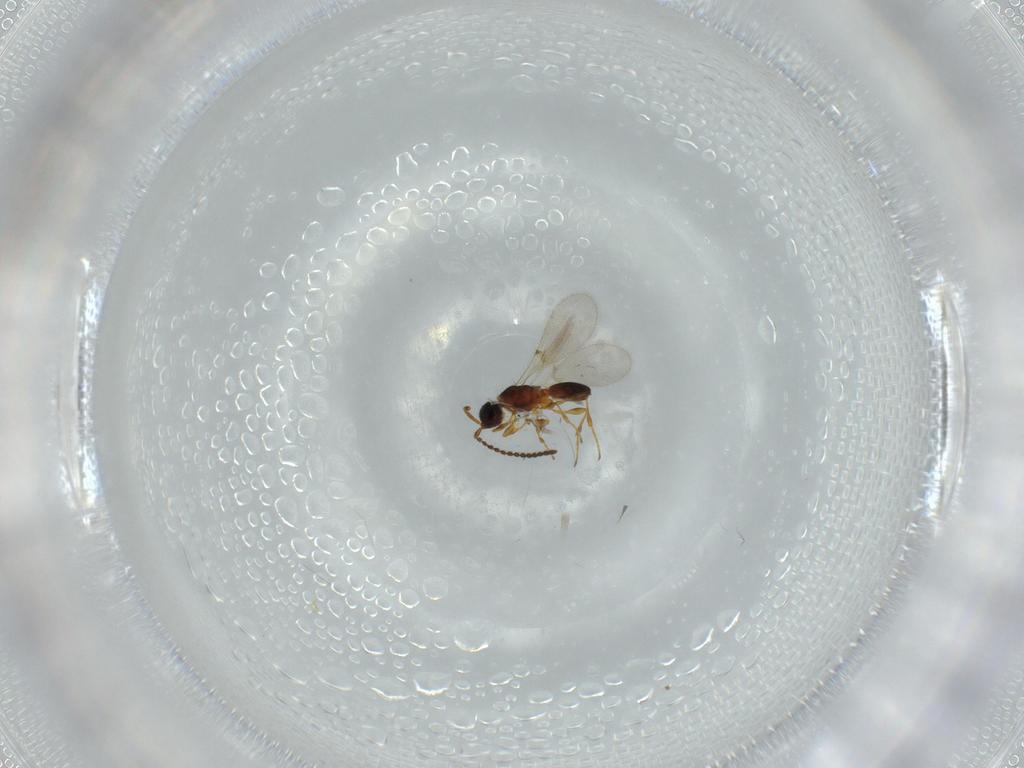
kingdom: Animalia
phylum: Arthropoda
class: Insecta
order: Hymenoptera
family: Diapriidae
